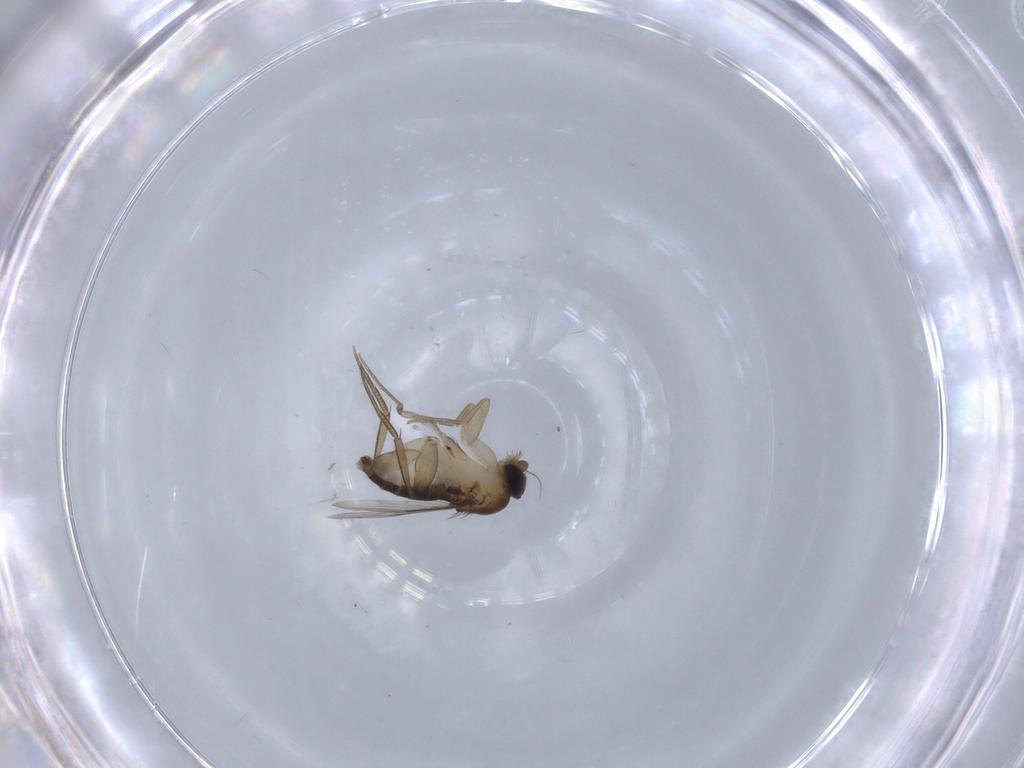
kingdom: Animalia
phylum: Arthropoda
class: Insecta
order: Diptera
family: Phoridae
